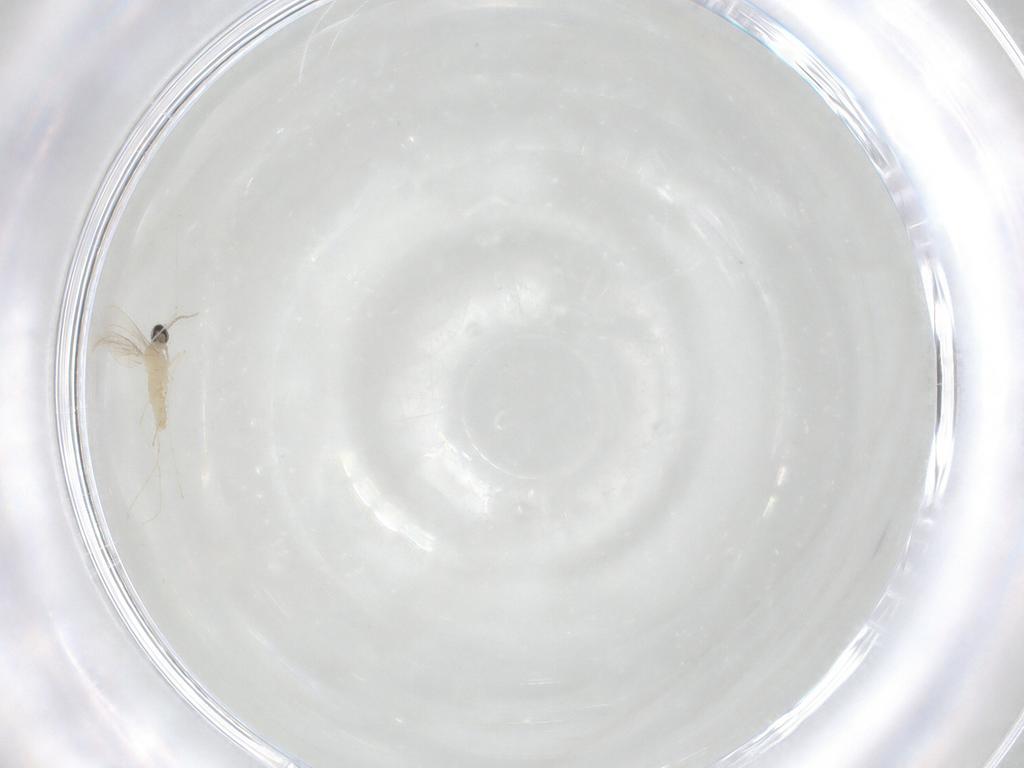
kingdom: Animalia
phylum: Arthropoda
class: Insecta
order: Diptera
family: Cecidomyiidae
